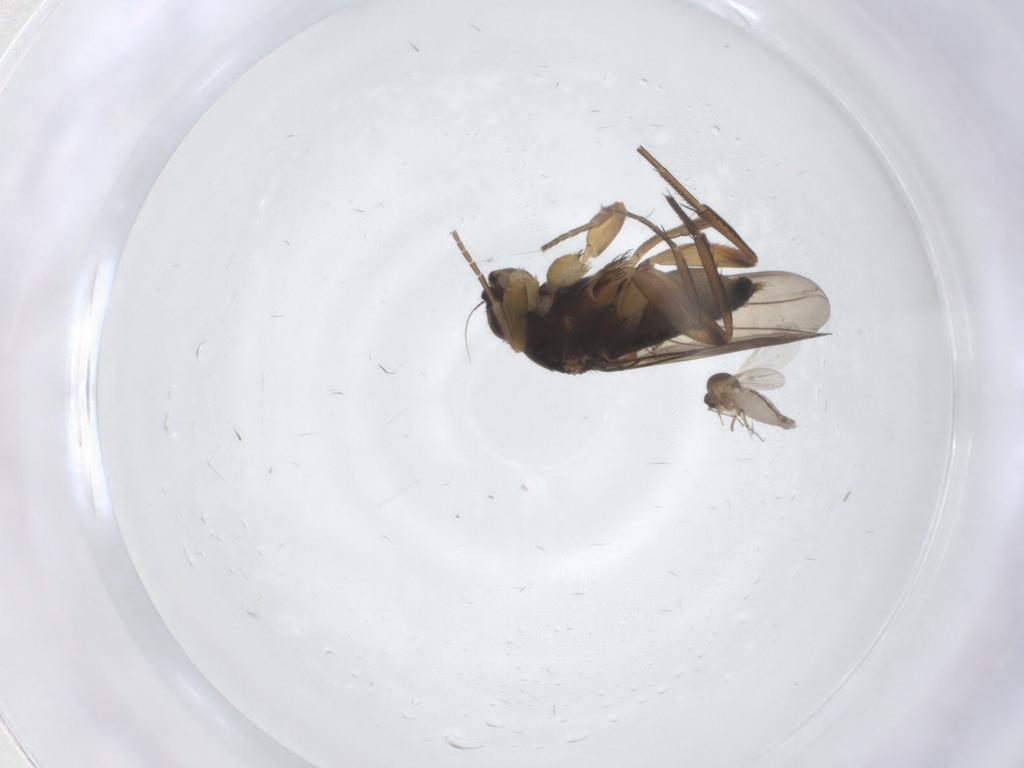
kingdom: Animalia
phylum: Arthropoda
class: Insecta
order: Diptera
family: Phoridae
